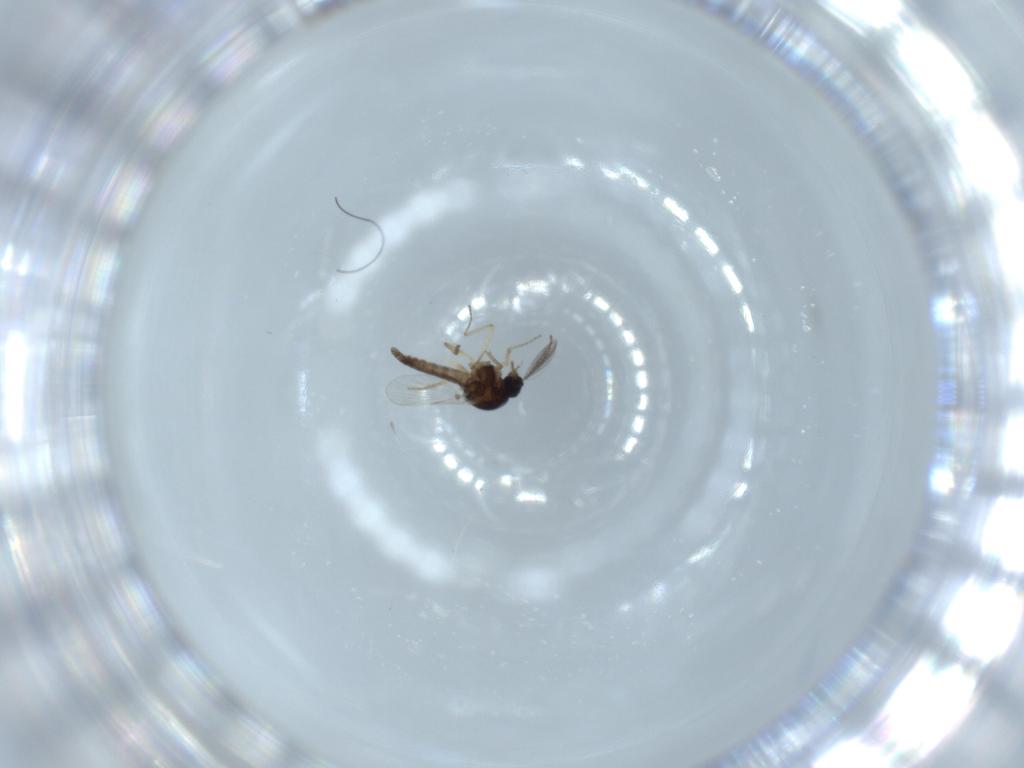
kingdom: Animalia
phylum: Arthropoda
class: Insecta
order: Diptera
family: Ceratopogonidae
